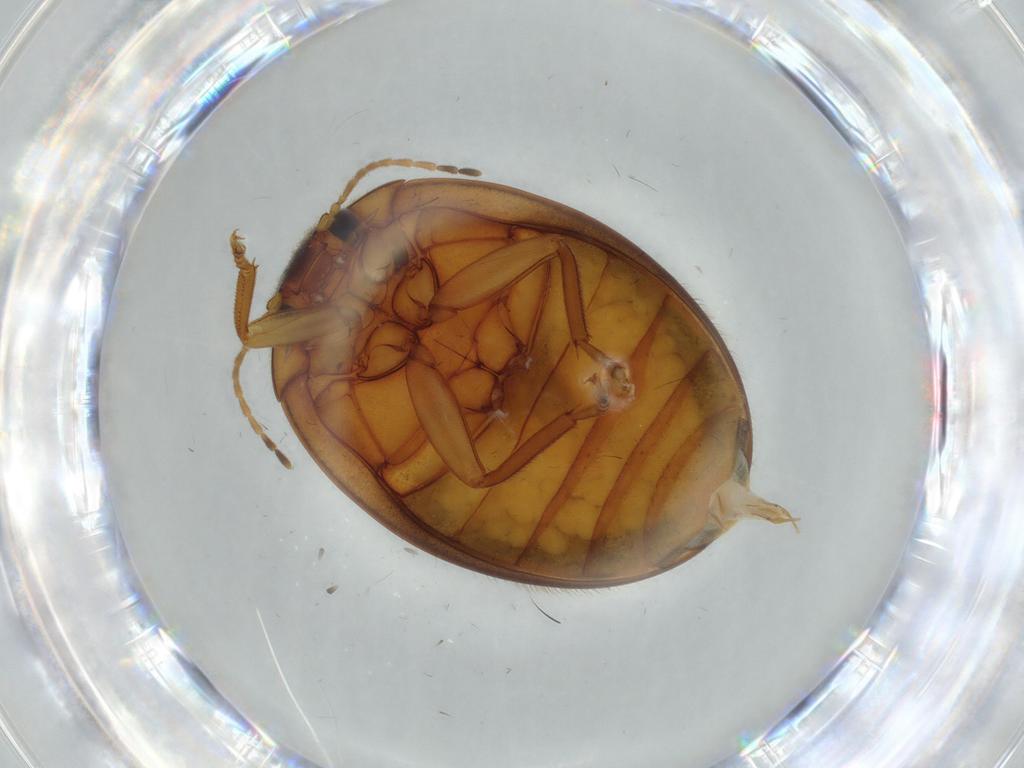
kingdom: Animalia
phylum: Arthropoda
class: Insecta
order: Coleoptera
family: Scirtidae
